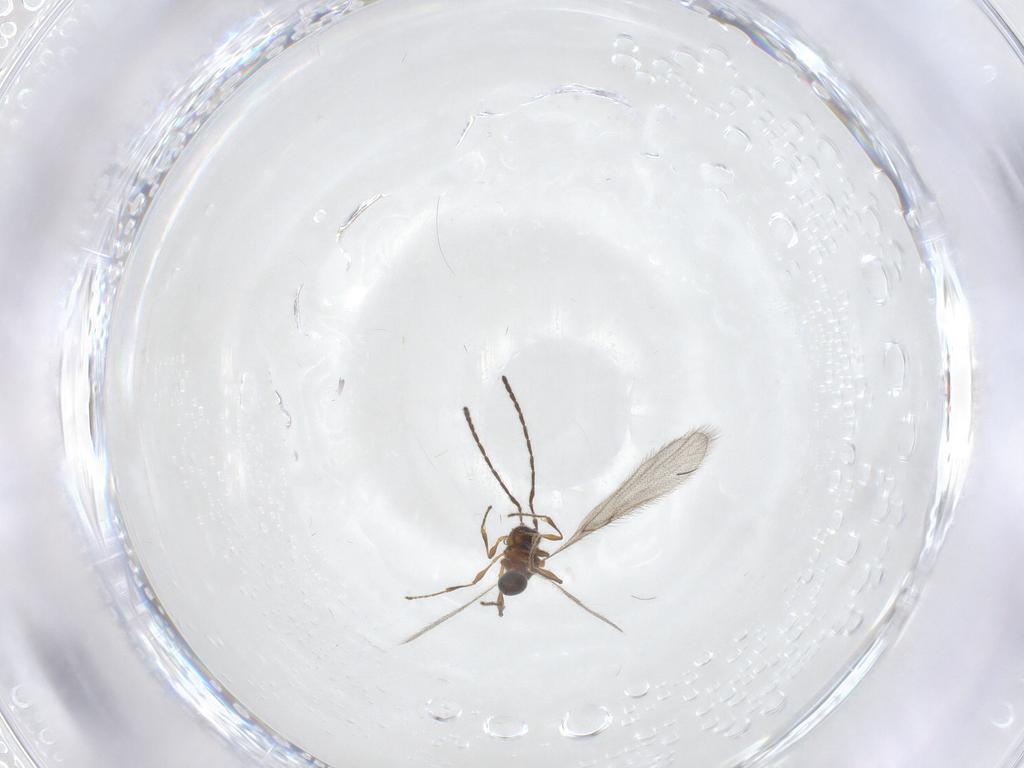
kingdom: Animalia
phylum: Arthropoda
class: Insecta
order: Hymenoptera
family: Diapriidae
